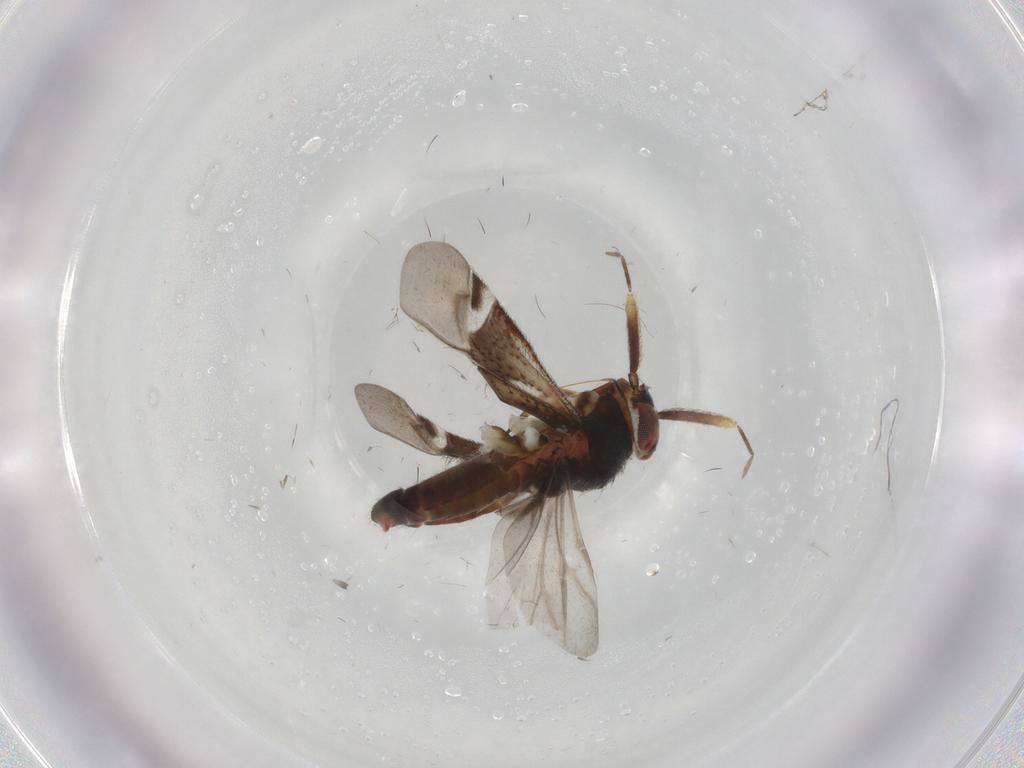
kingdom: Animalia
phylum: Arthropoda
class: Insecta
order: Hemiptera
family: Miridae
